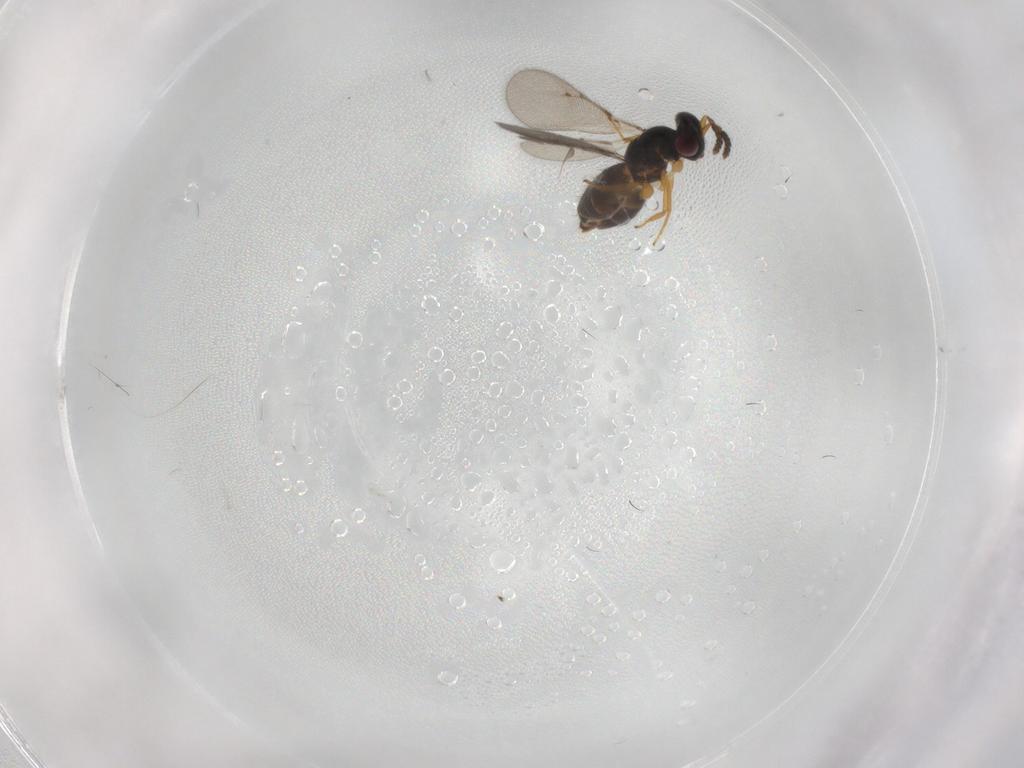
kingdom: Animalia
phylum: Arthropoda
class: Insecta
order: Hymenoptera
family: Eulophidae
